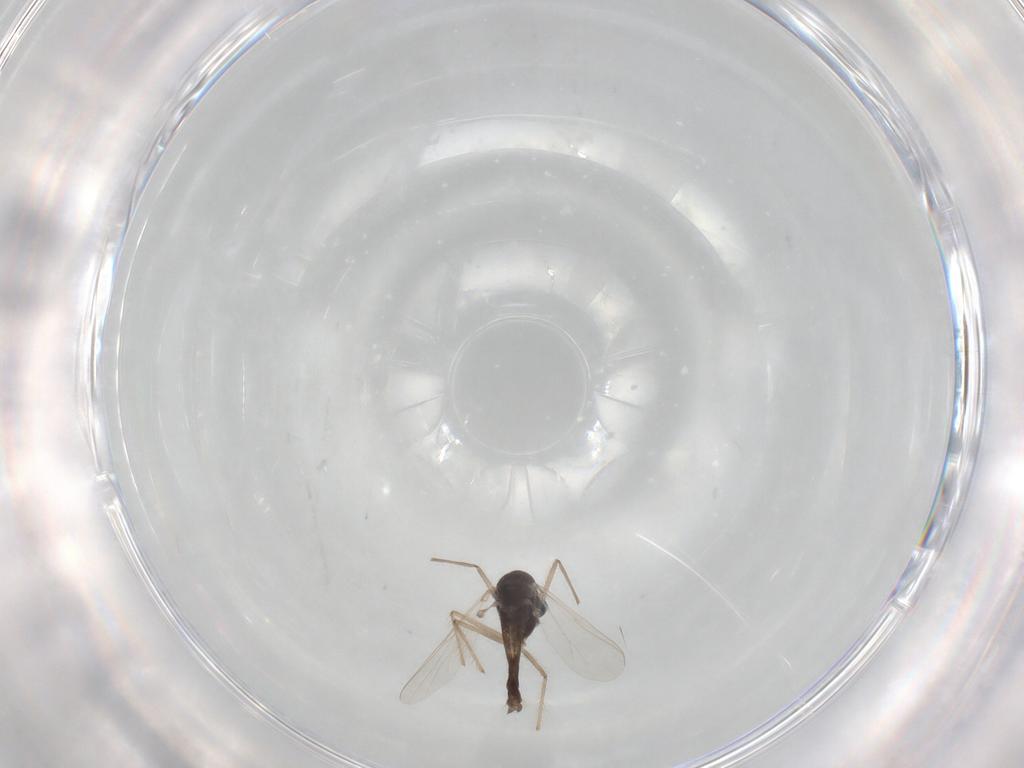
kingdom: Animalia
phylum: Arthropoda
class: Insecta
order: Diptera
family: Chironomidae
